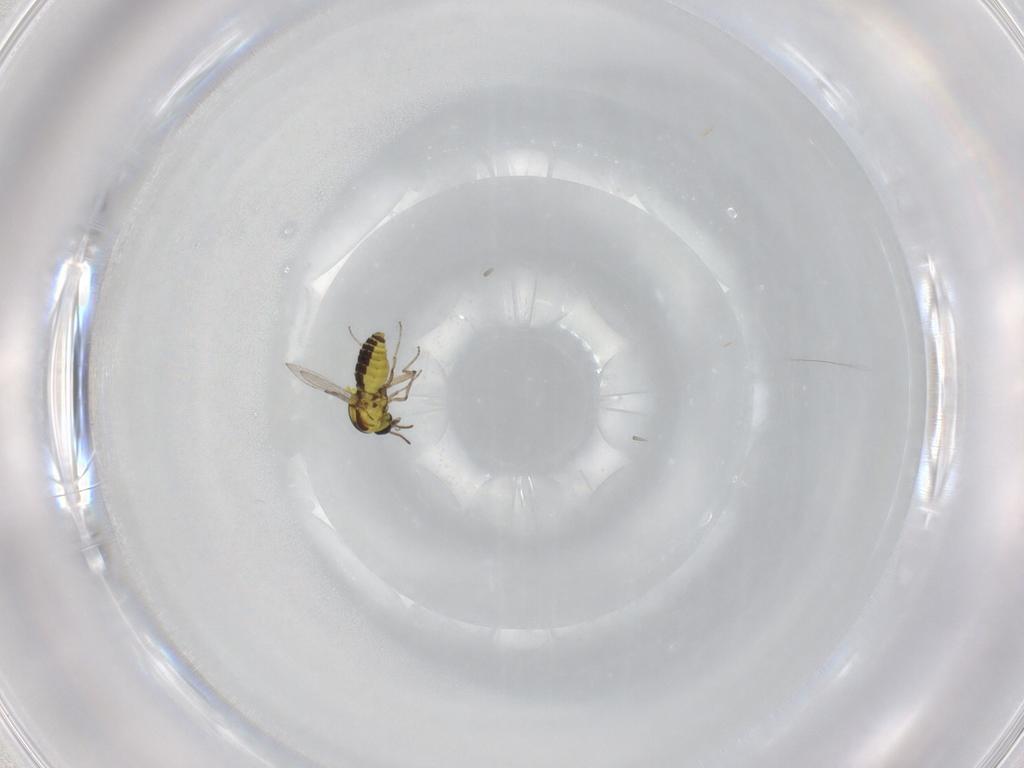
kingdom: Animalia
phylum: Arthropoda
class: Insecta
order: Diptera
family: Ceratopogonidae
